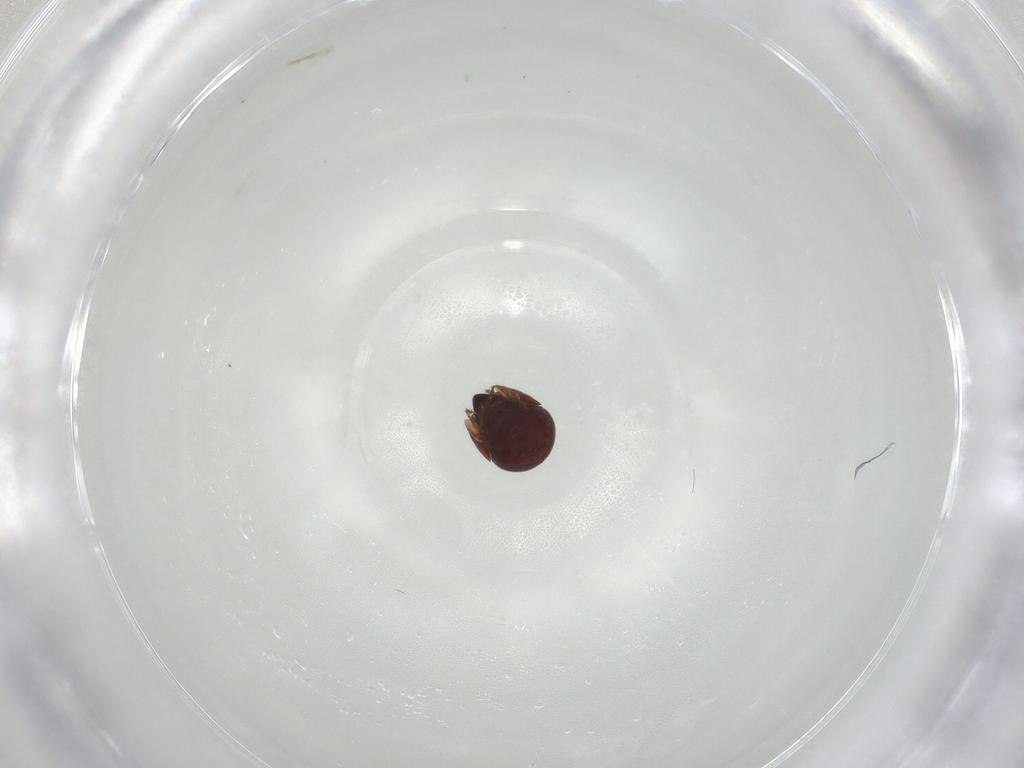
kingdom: Animalia
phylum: Arthropoda
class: Arachnida
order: Sarcoptiformes
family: Galumnidae
